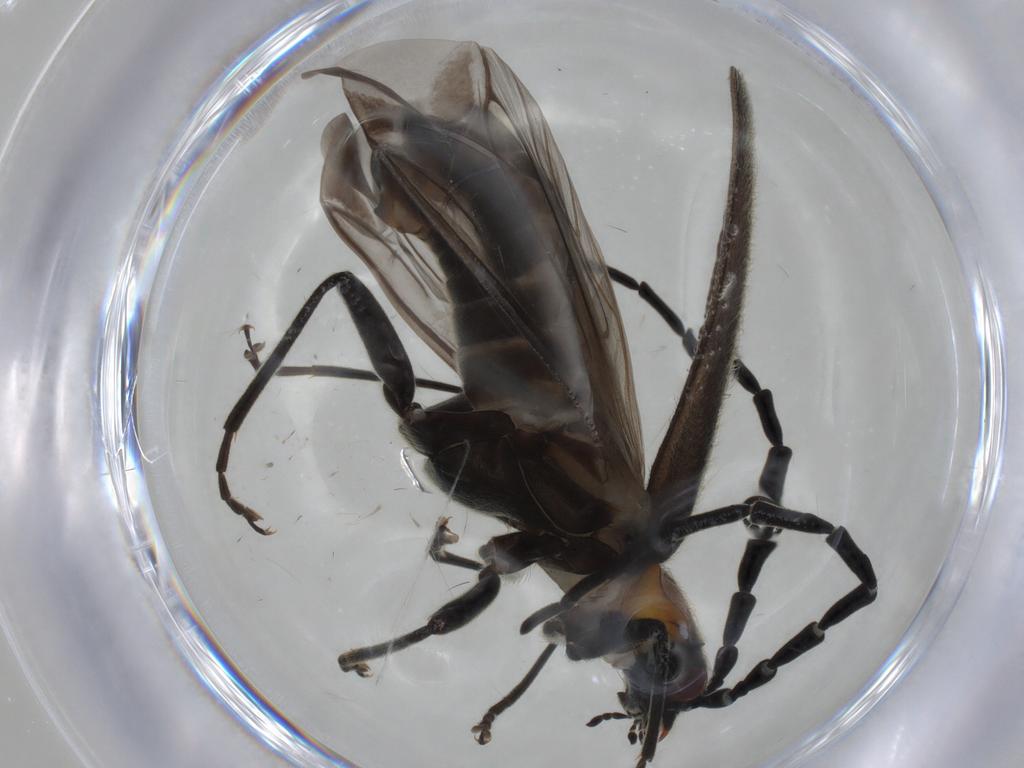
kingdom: Animalia
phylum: Arthropoda
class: Insecta
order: Coleoptera
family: Cantharidae
